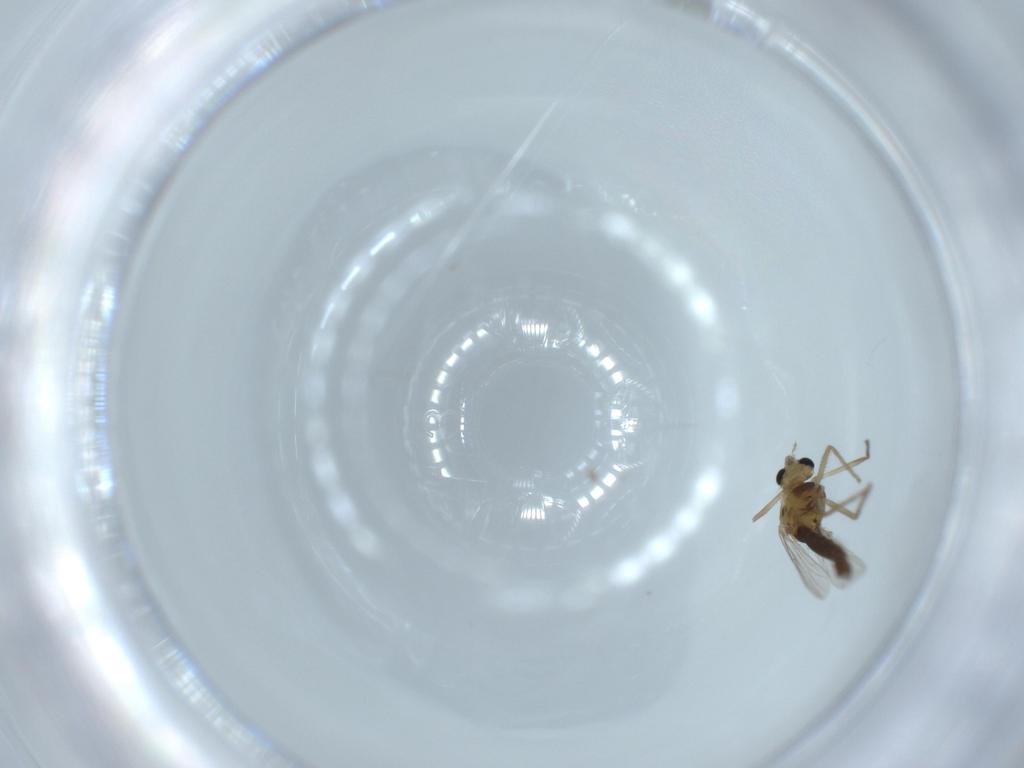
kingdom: Animalia
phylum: Arthropoda
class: Insecta
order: Diptera
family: Chironomidae
